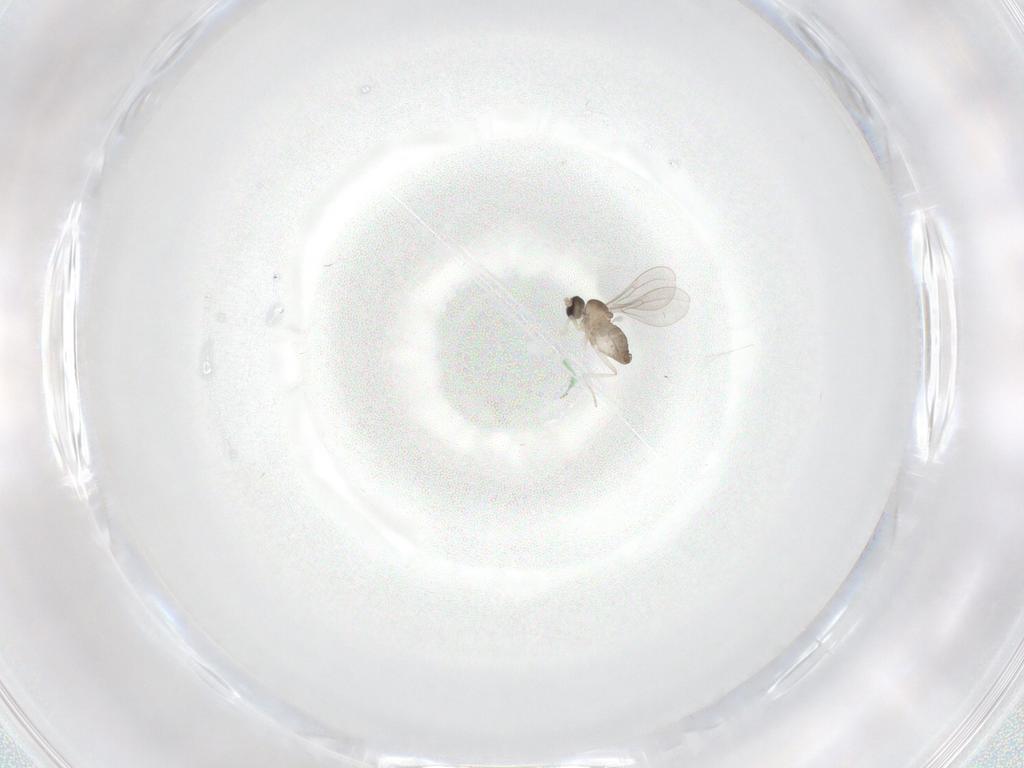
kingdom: Animalia
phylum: Arthropoda
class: Insecta
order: Diptera
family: Cecidomyiidae
